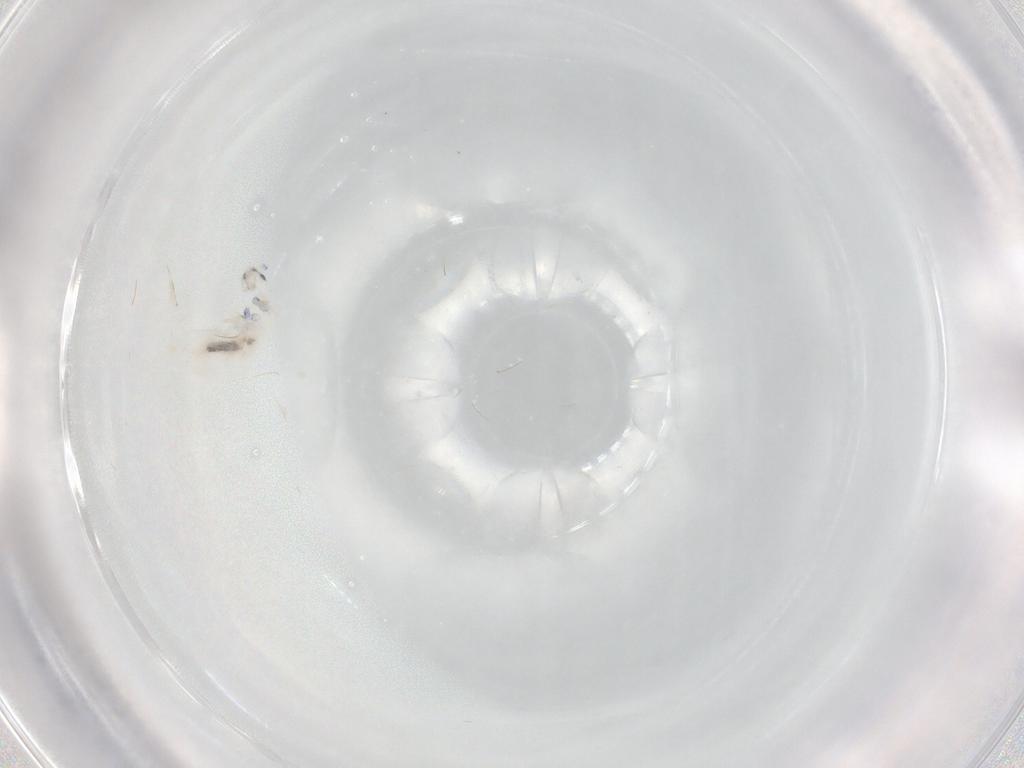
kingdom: Animalia
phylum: Arthropoda
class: Collembola
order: Entomobryomorpha
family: Entomobryidae
